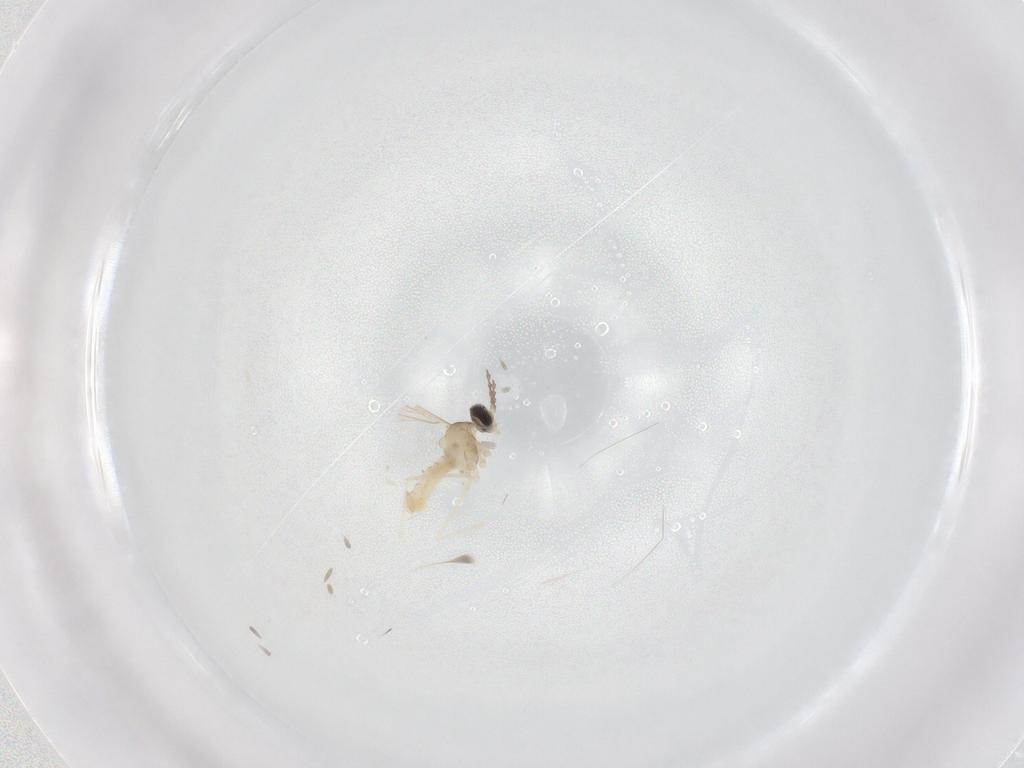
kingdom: Animalia
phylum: Arthropoda
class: Insecta
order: Diptera
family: Cecidomyiidae
